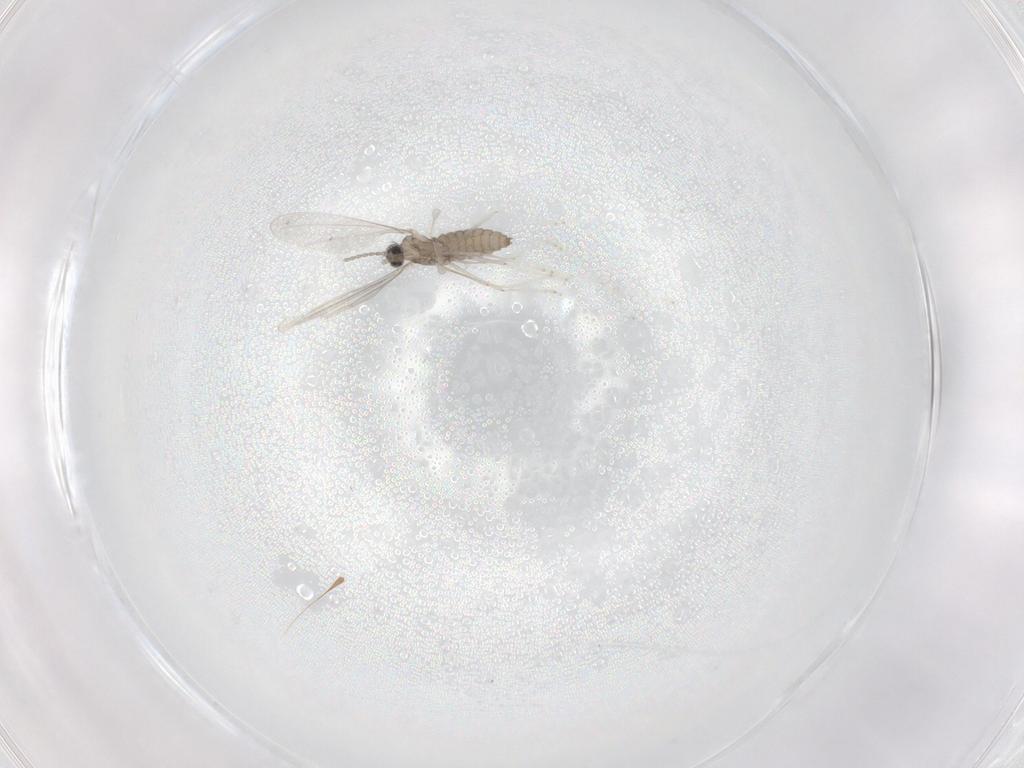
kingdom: Animalia
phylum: Arthropoda
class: Insecta
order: Diptera
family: Cecidomyiidae
